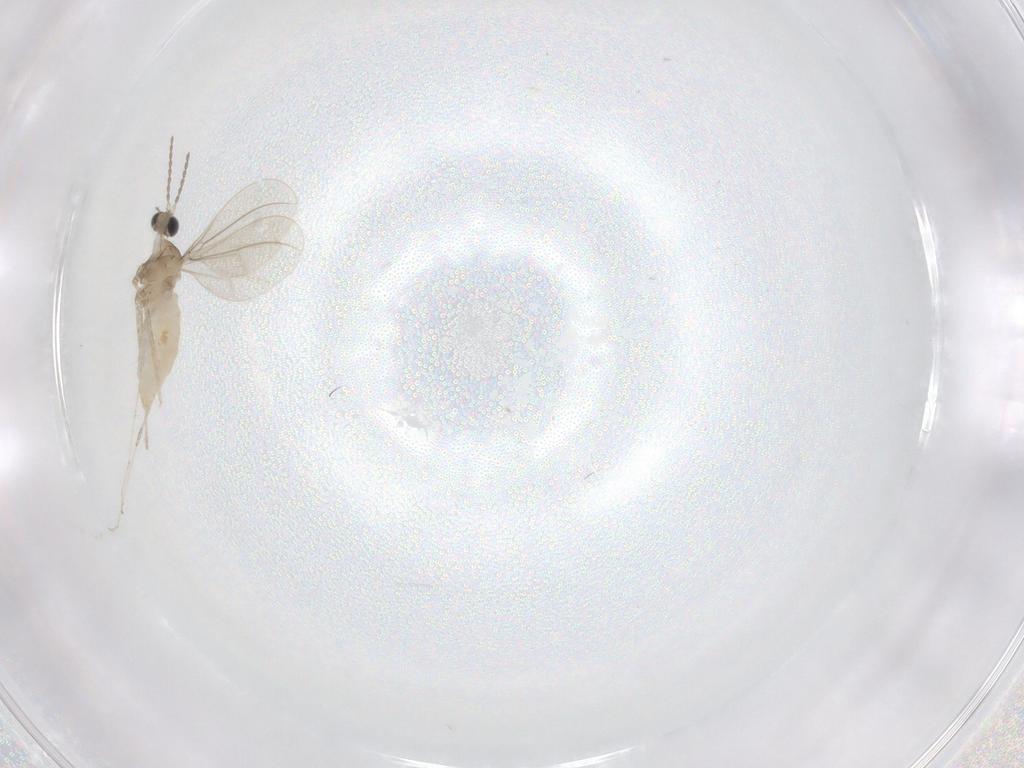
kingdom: Animalia
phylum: Arthropoda
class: Insecta
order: Diptera
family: Cecidomyiidae
